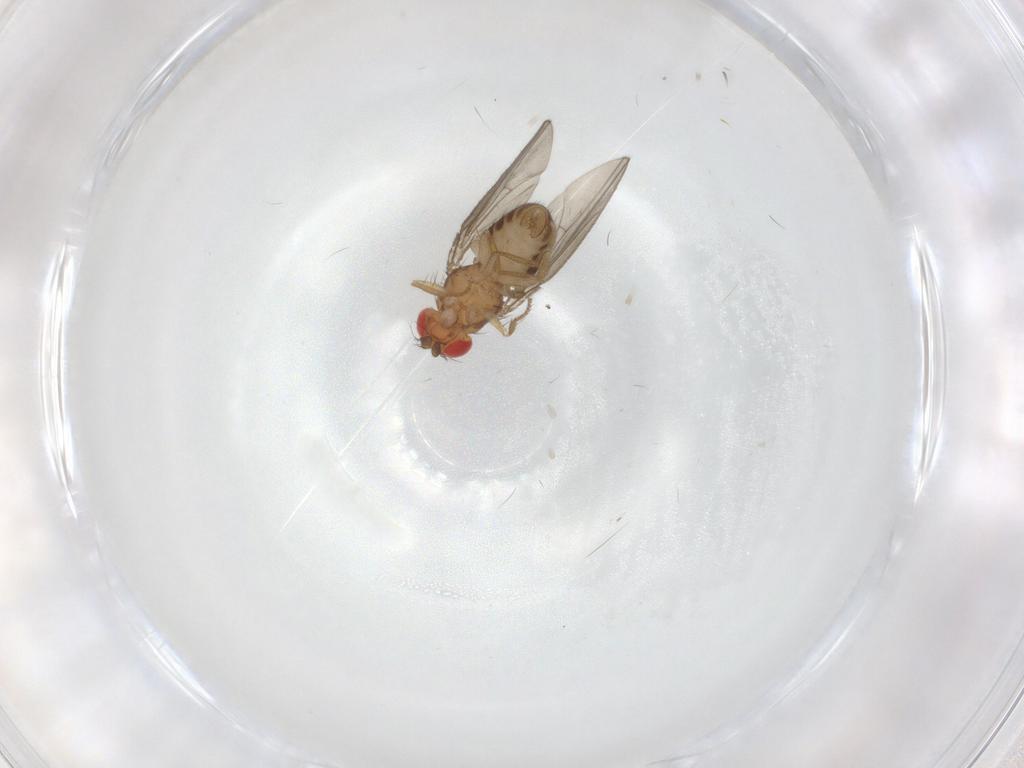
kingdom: Animalia
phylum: Arthropoda
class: Insecta
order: Diptera
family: Drosophilidae
